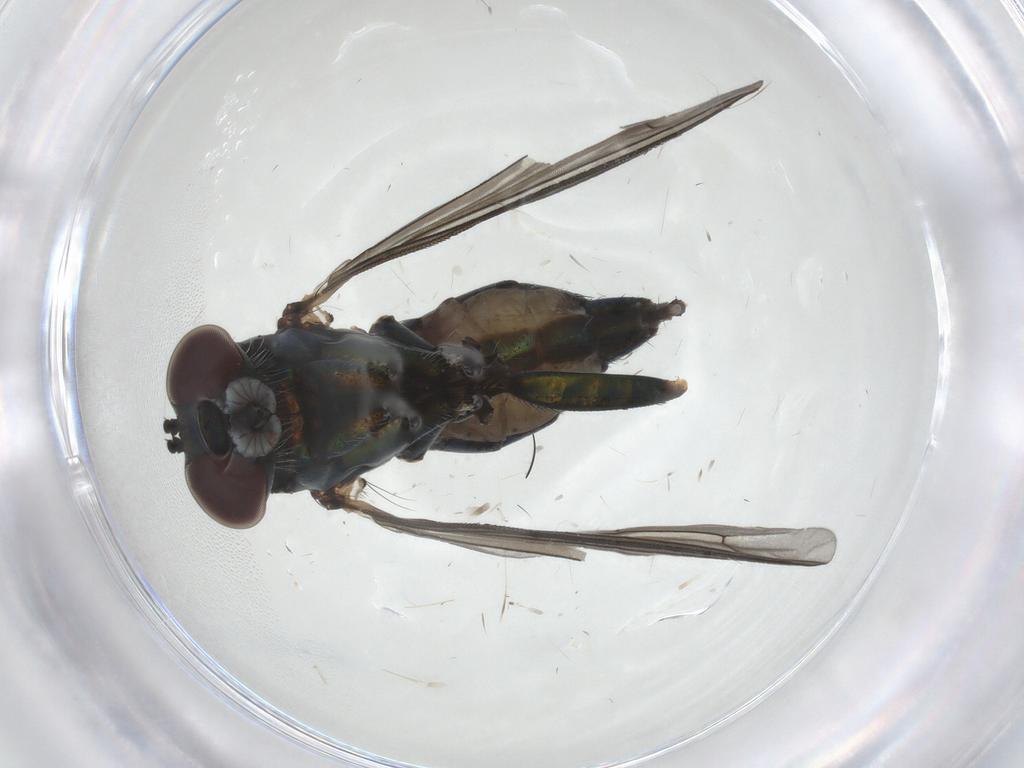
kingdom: Animalia
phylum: Arthropoda
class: Insecta
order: Diptera
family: Dolichopodidae
